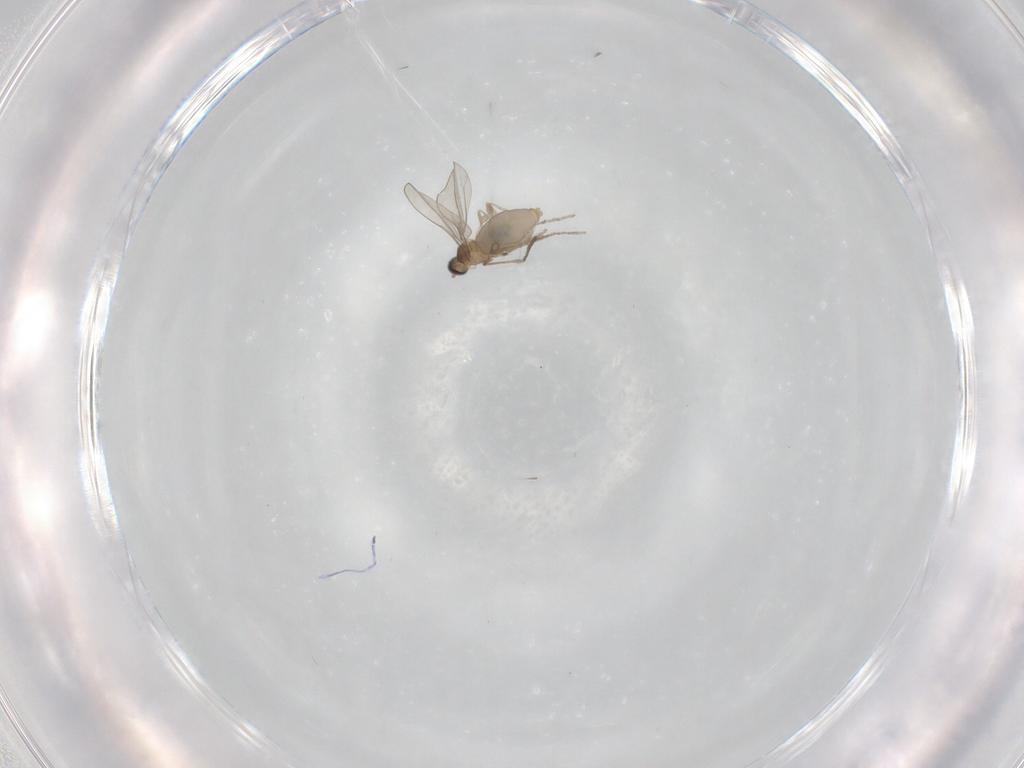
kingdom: Animalia
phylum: Arthropoda
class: Insecta
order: Diptera
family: Cecidomyiidae
